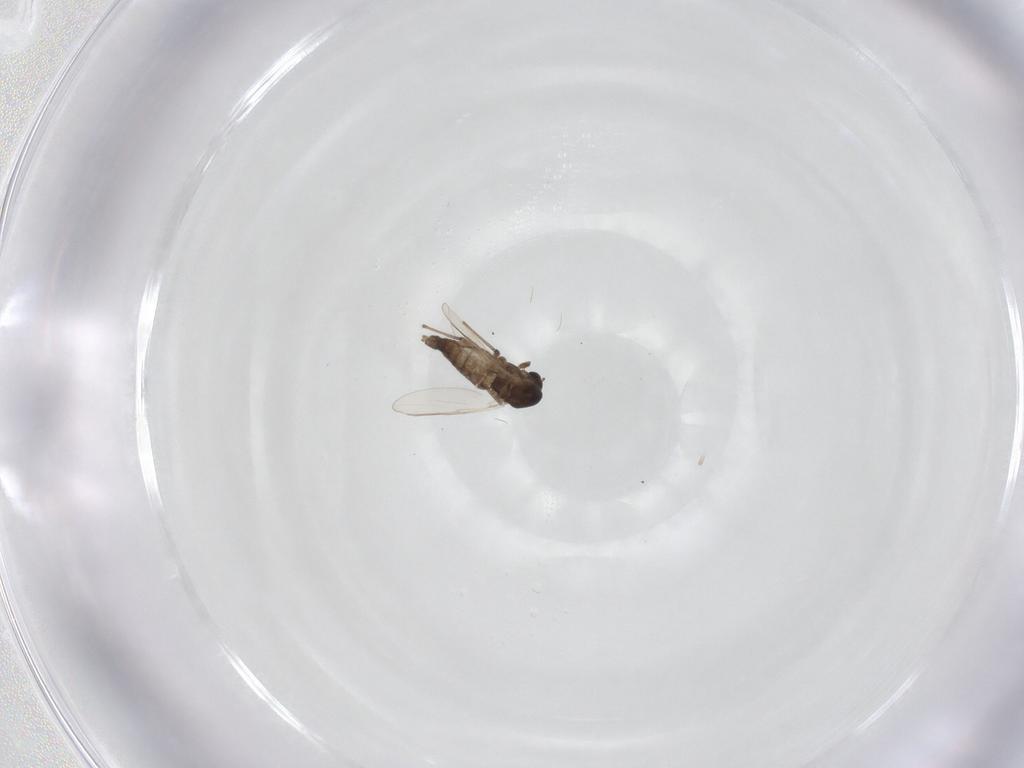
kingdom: Animalia
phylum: Arthropoda
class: Insecta
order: Diptera
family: Chironomidae
